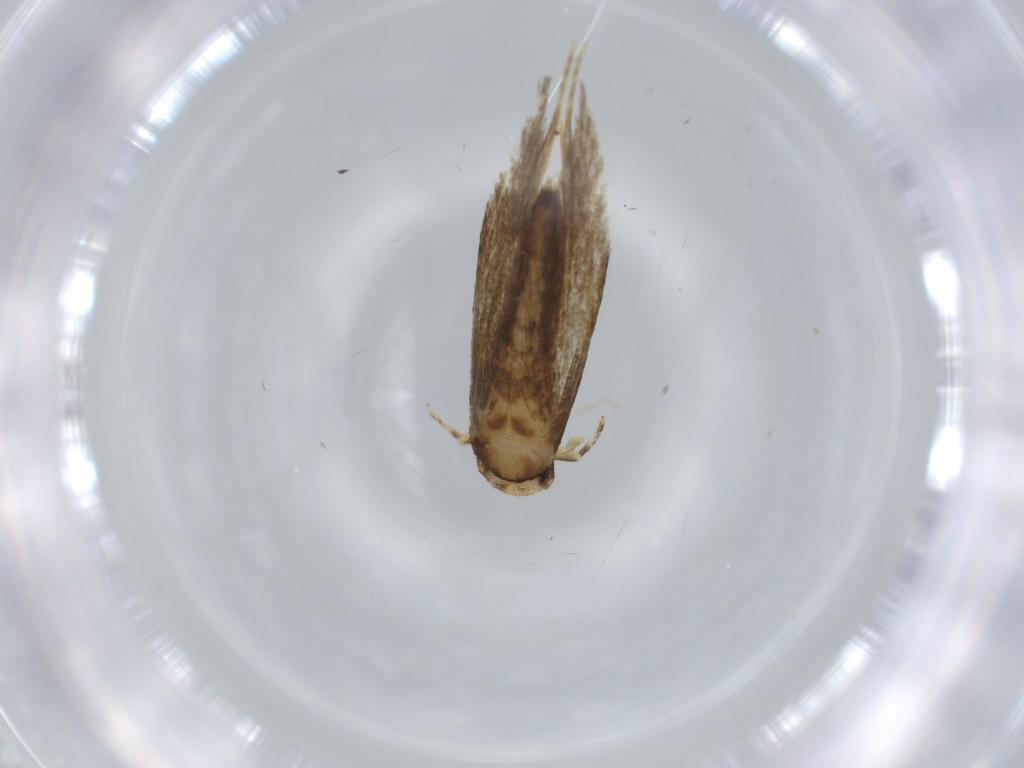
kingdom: Animalia
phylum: Arthropoda
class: Insecta
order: Lepidoptera
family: Tineidae
